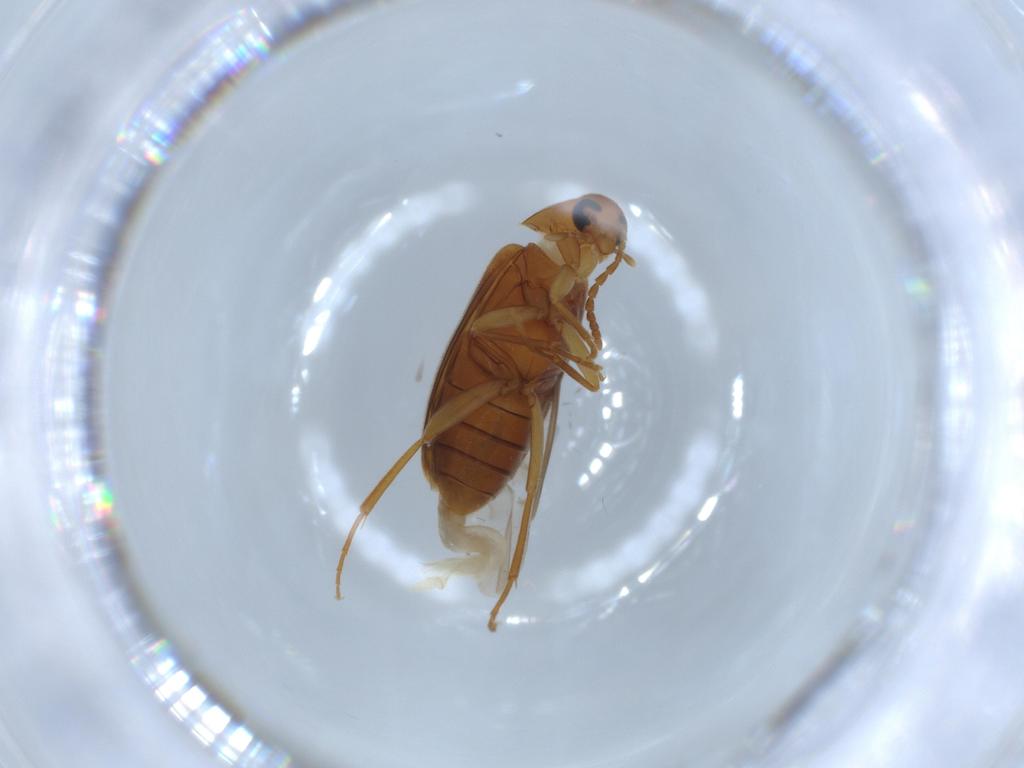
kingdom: Animalia
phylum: Arthropoda
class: Insecta
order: Coleoptera
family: Scraptiidae
